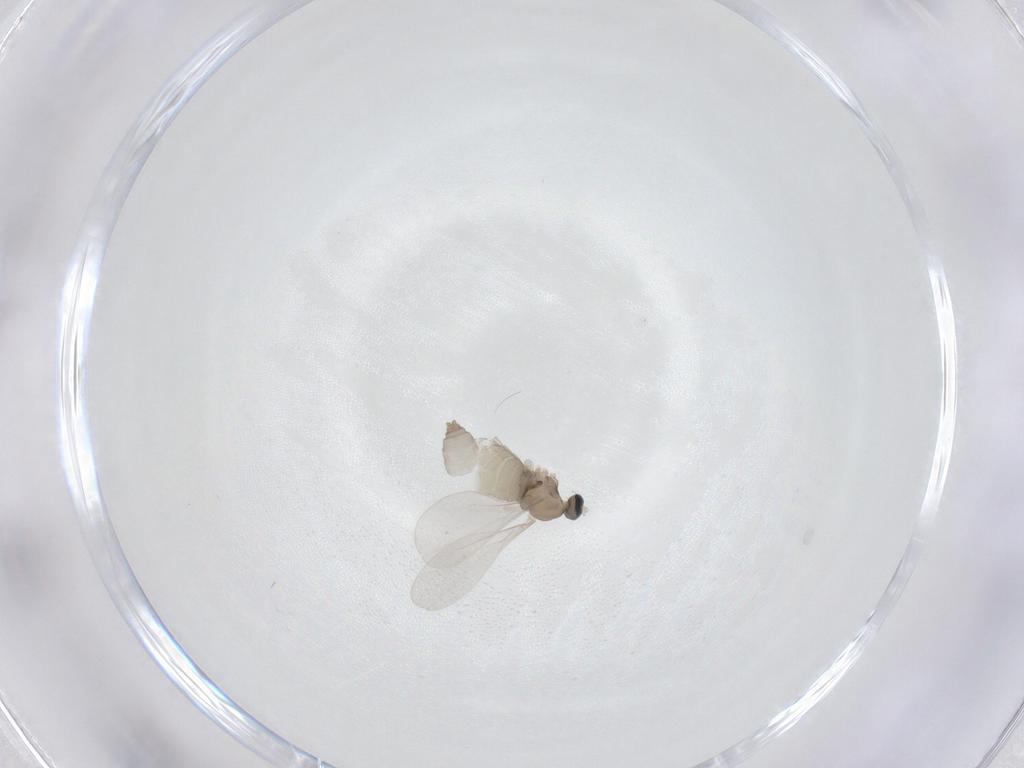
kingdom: Animalia
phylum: Arthropoda
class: Insecta
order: Diptera
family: Cecidomyiidae
